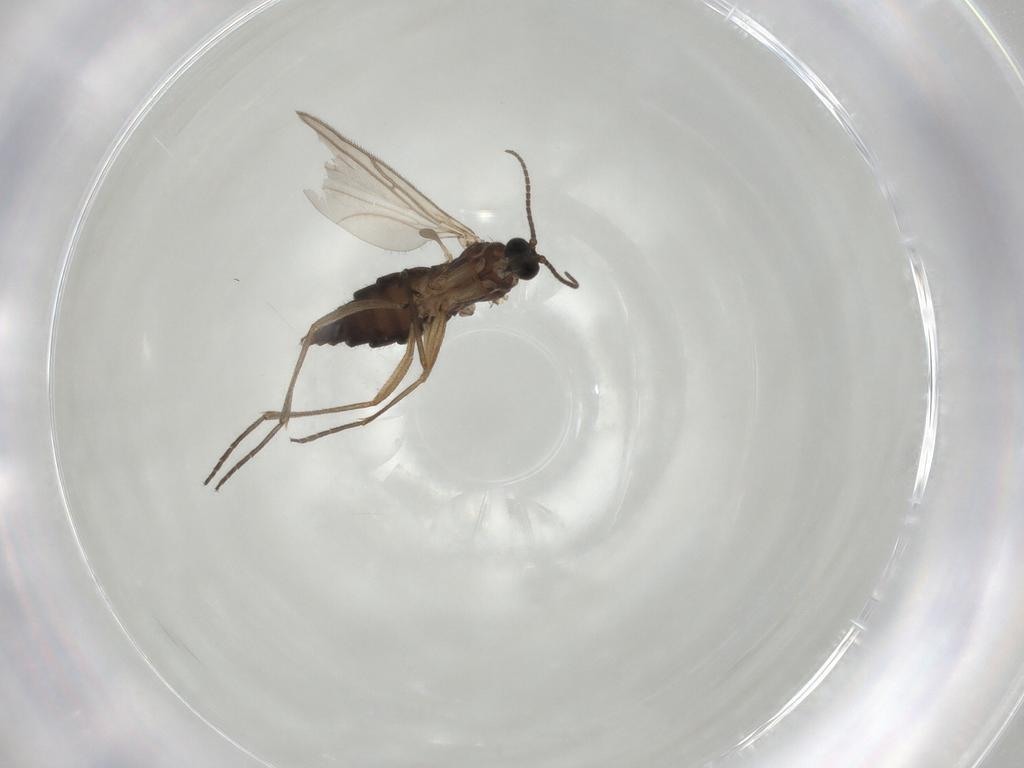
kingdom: Animalia
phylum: Arthropoda
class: Insecta
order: Diptera
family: Sciaridae
